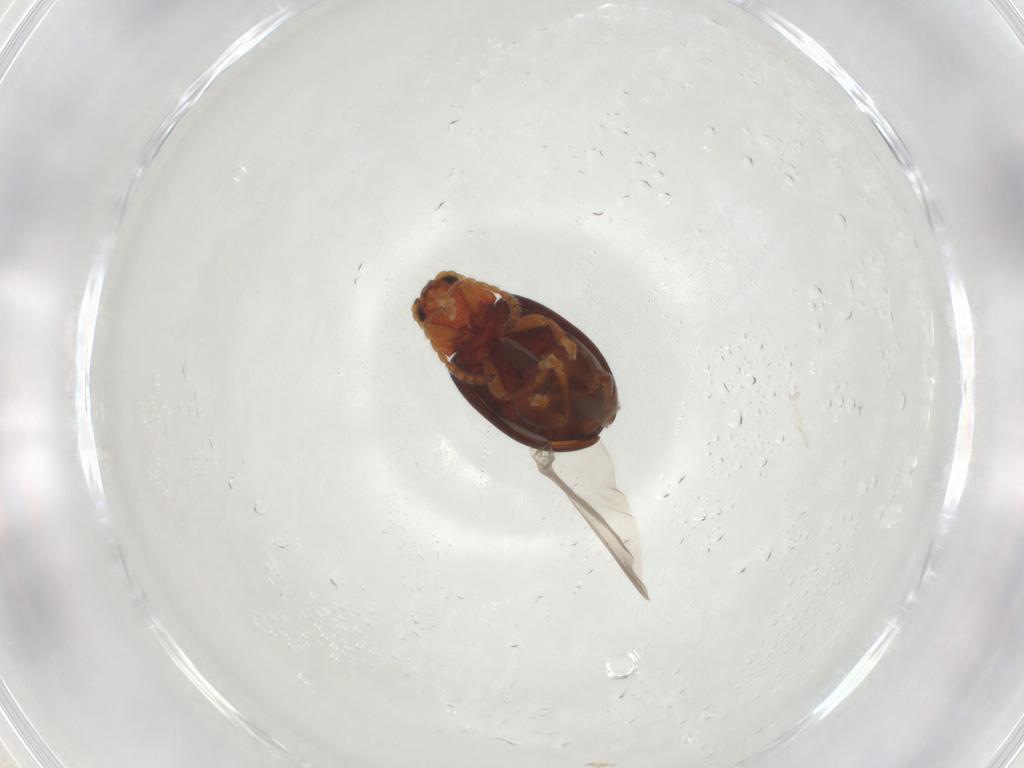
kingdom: Animalia
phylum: Arthropoda
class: Insecta
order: Coleoptera
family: Chrysomelidae
